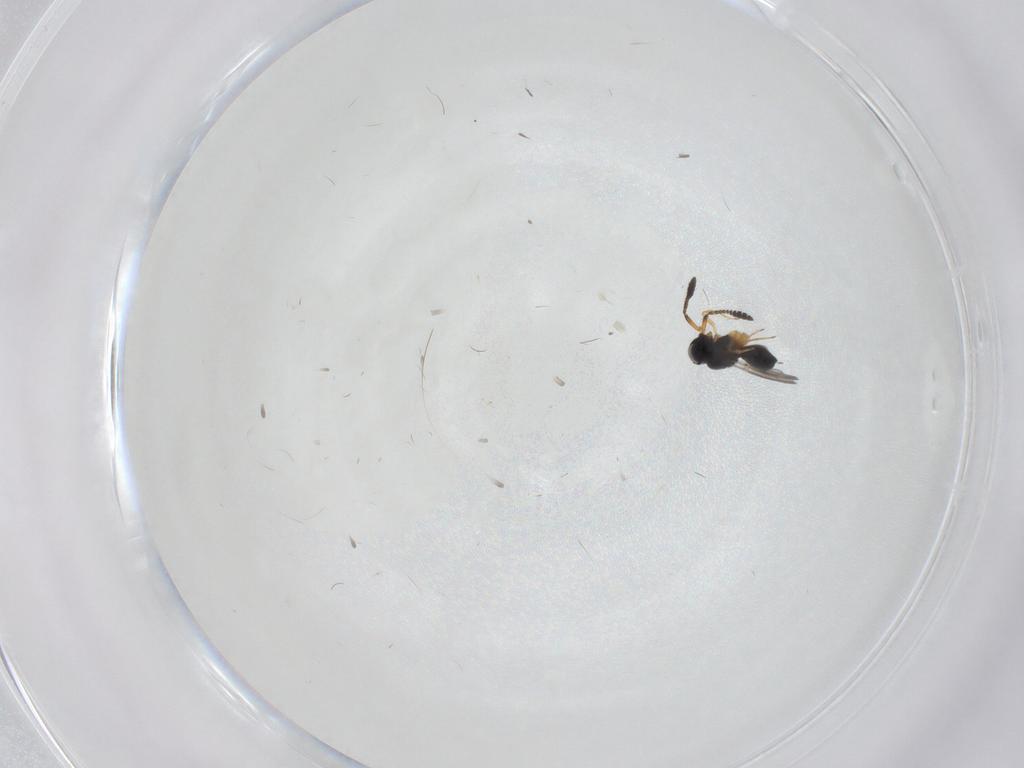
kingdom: Animalia
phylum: Arthropoda
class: Insecta
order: Hymenoptera
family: Scelionidae
